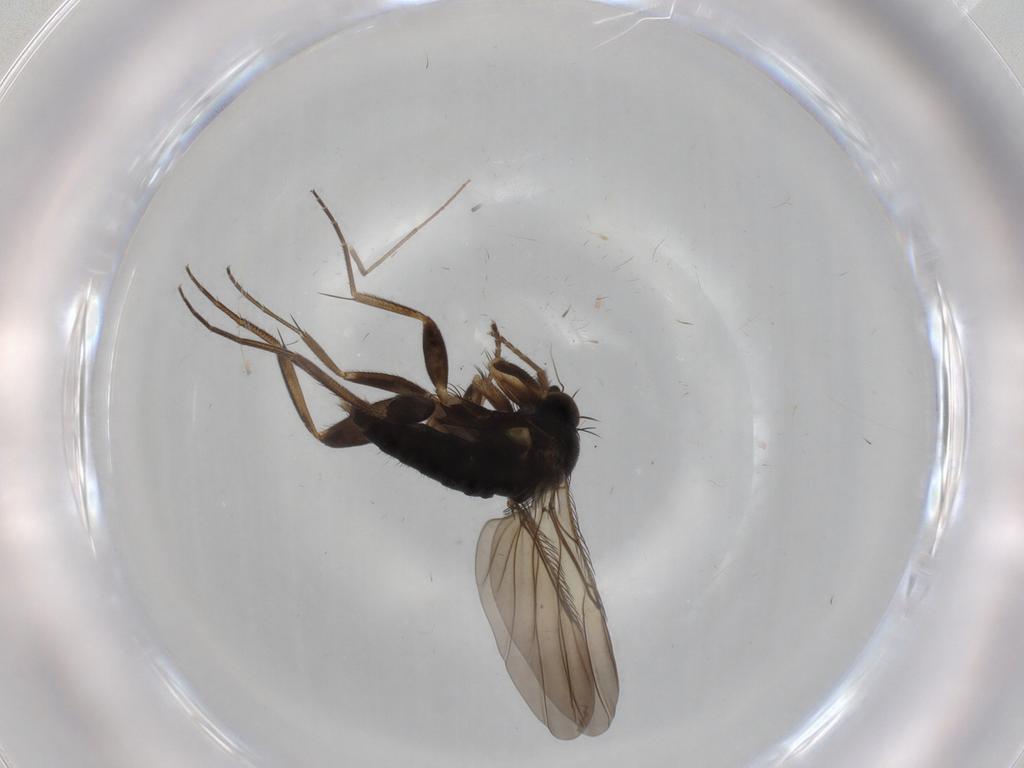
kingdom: Animalia
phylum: Arthropoda
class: Insecta
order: Diptera
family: Phoridae
